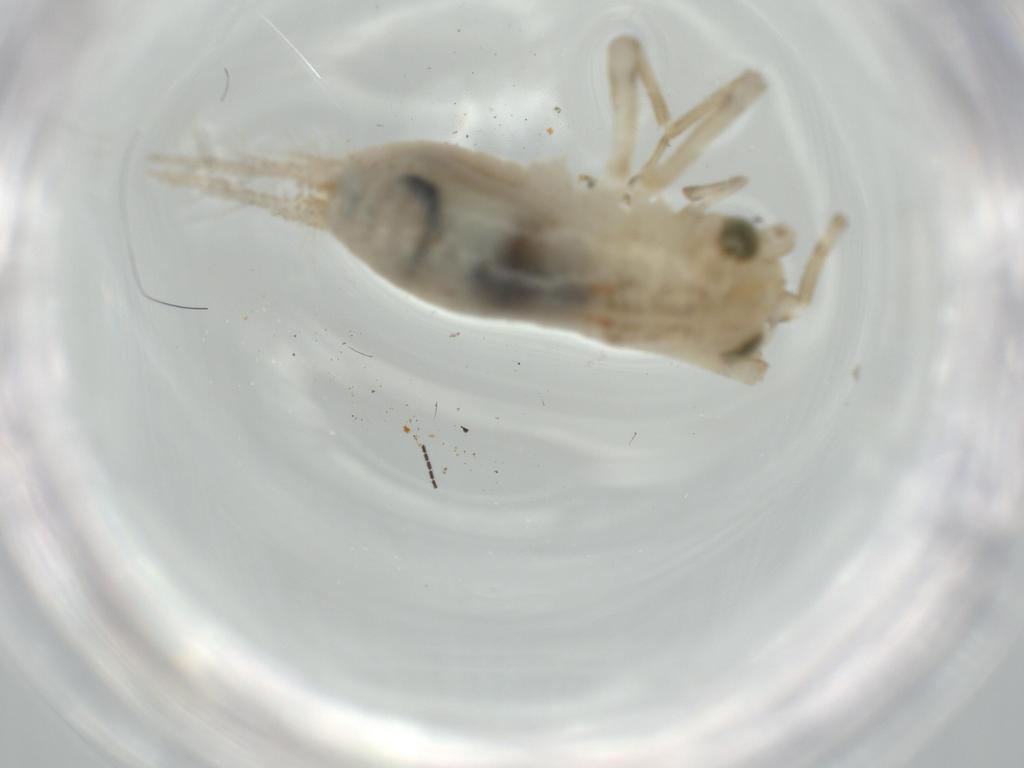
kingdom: Animalia
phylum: Arthropoda
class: Insecta
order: Orthoptera
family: Trigonidiidae
